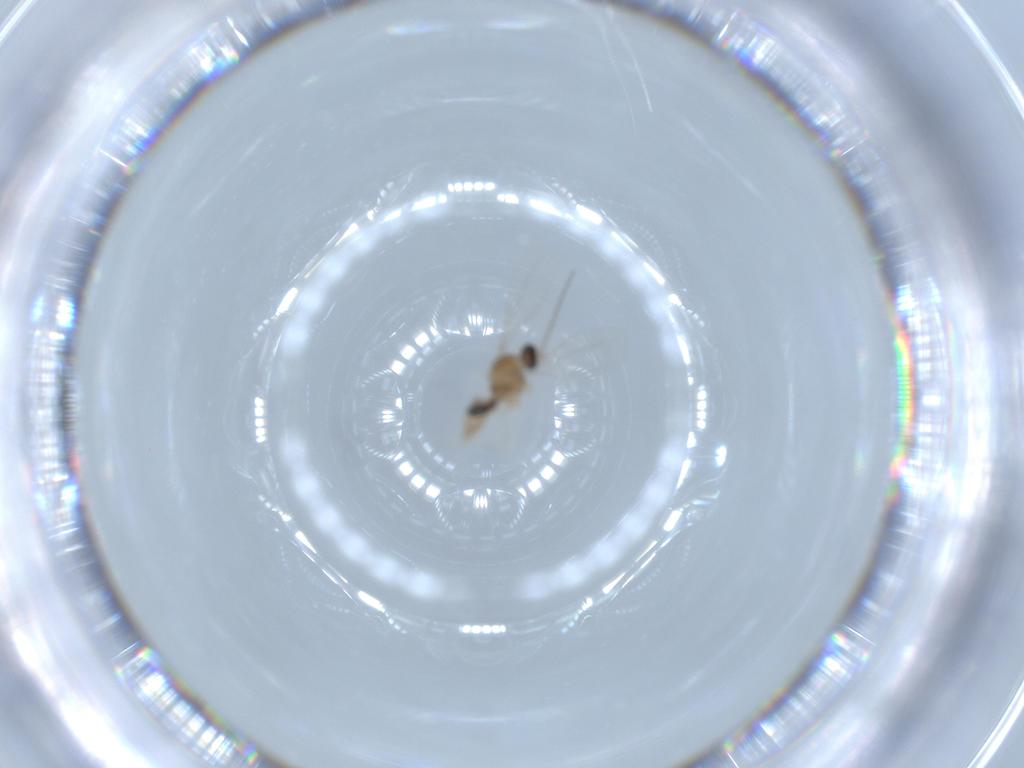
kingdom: Animalia
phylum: Arthropoda
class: Insecta
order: Diptera
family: Cecidomyiidae
